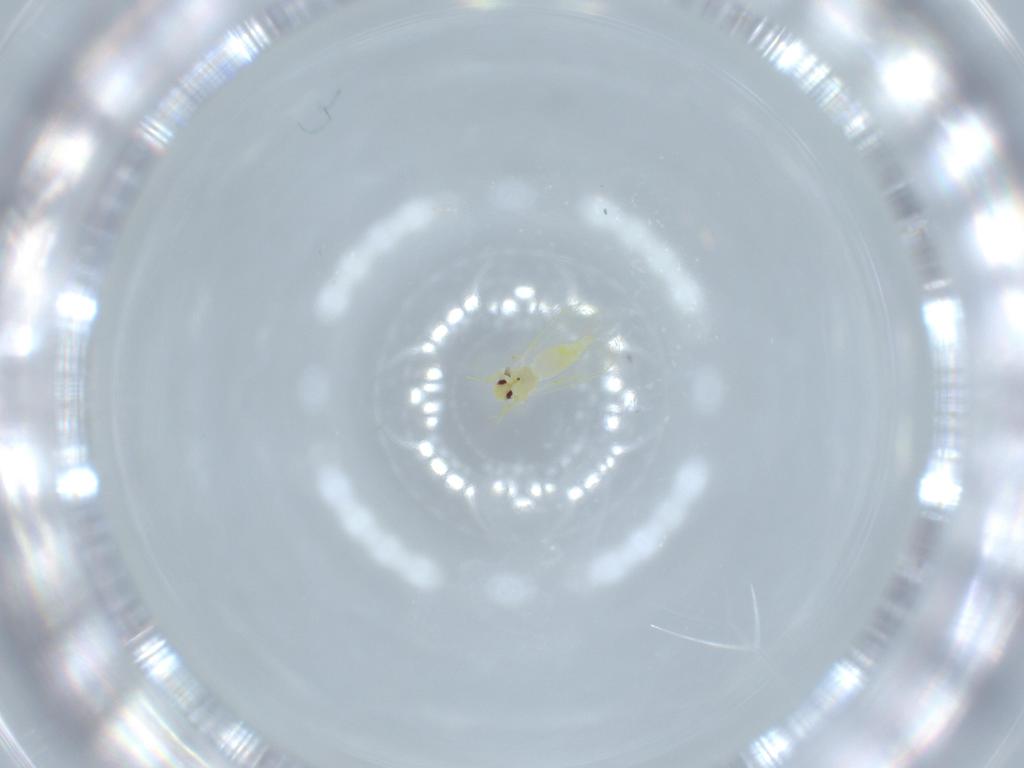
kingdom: Animalia
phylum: Arthropoda
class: Insecta
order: Hemiptera
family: Aleyrodidae
